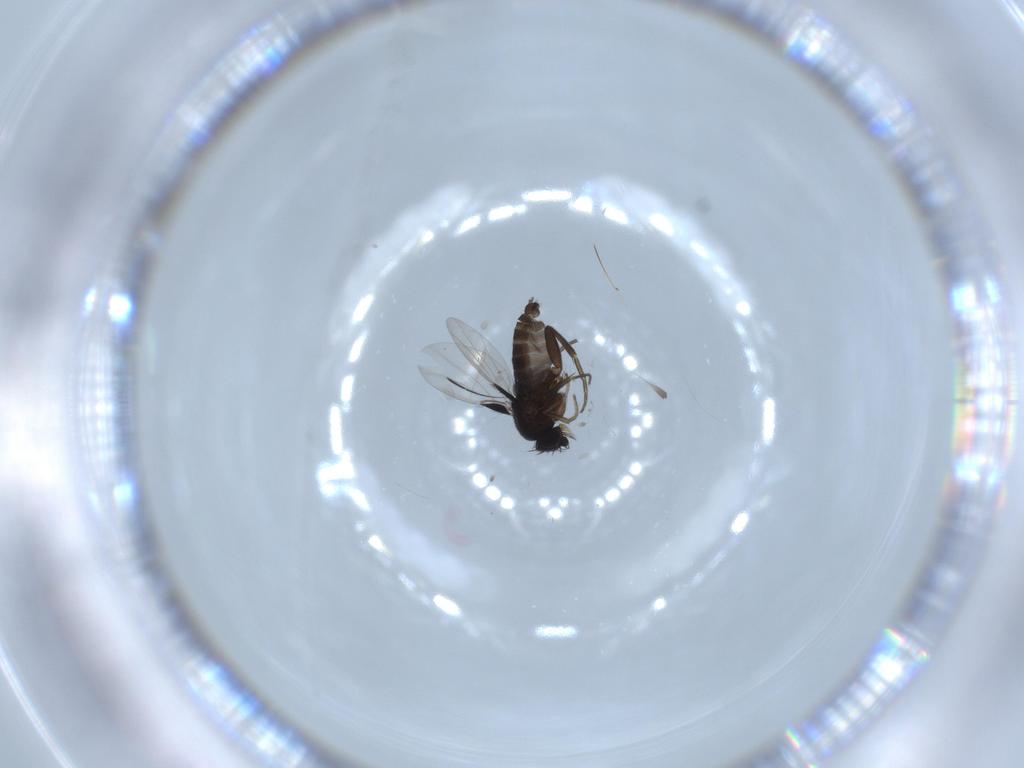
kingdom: Animalia
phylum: Arthropoda
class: Insecta
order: Diptera
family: Phoridae
